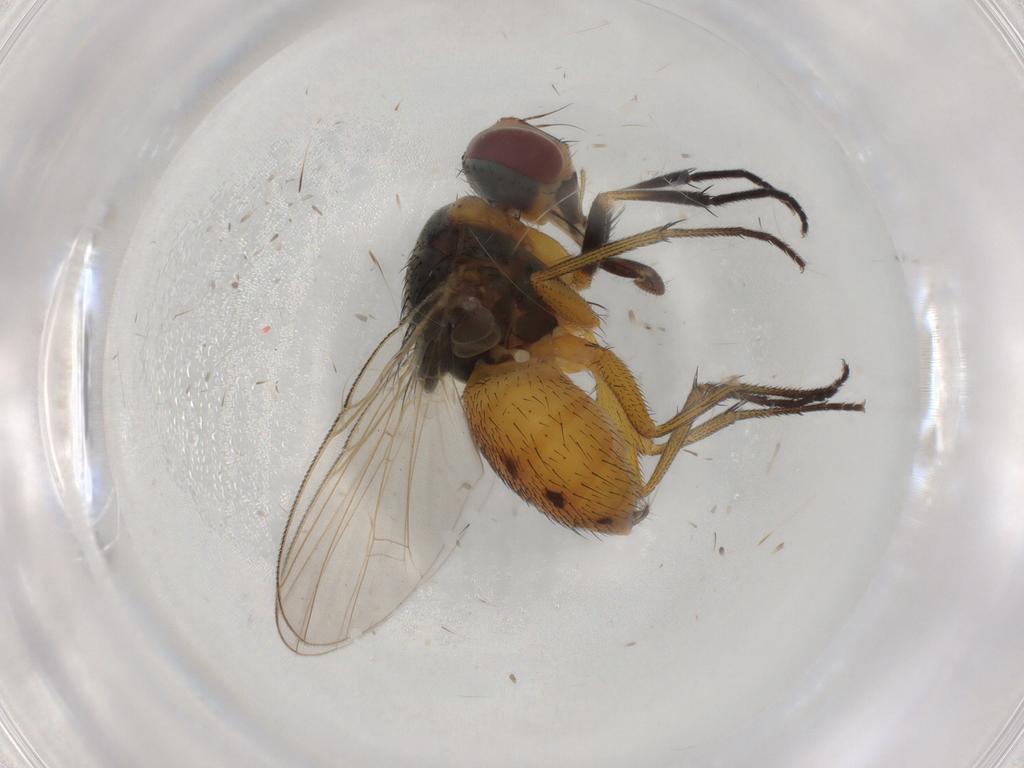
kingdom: Animalia
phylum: Arthropoda
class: Insecta
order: Diptera
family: Muscidae
